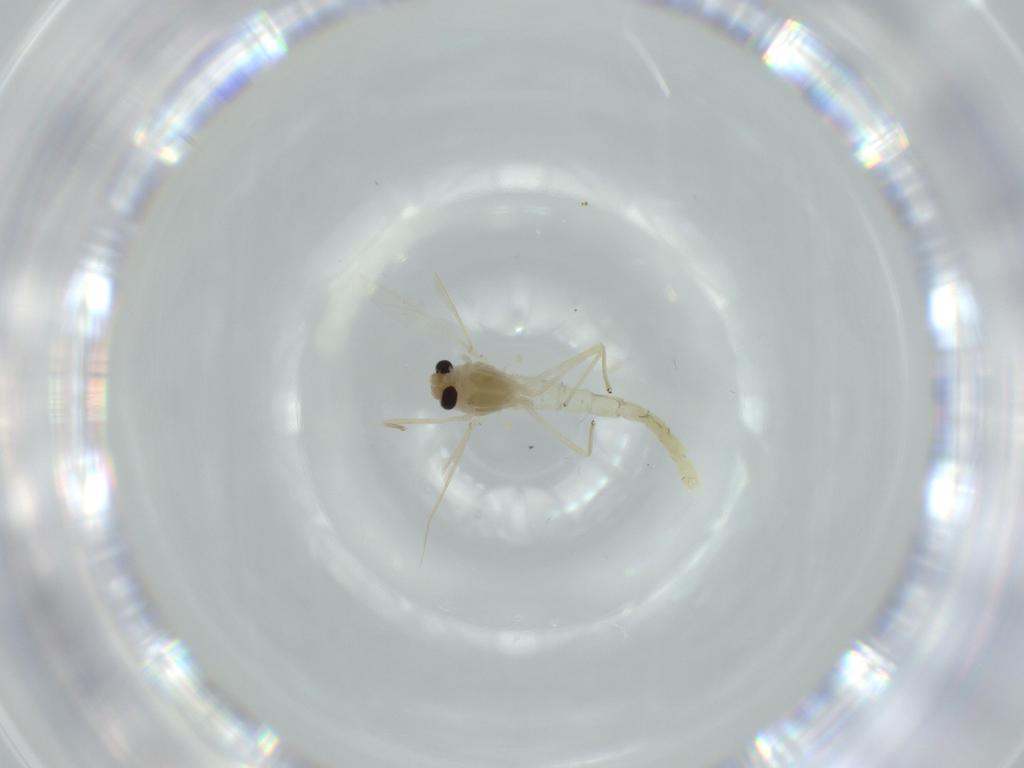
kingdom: Animalia
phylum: Arthropoda
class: Insecta
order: Diptera
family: Chironomidae
